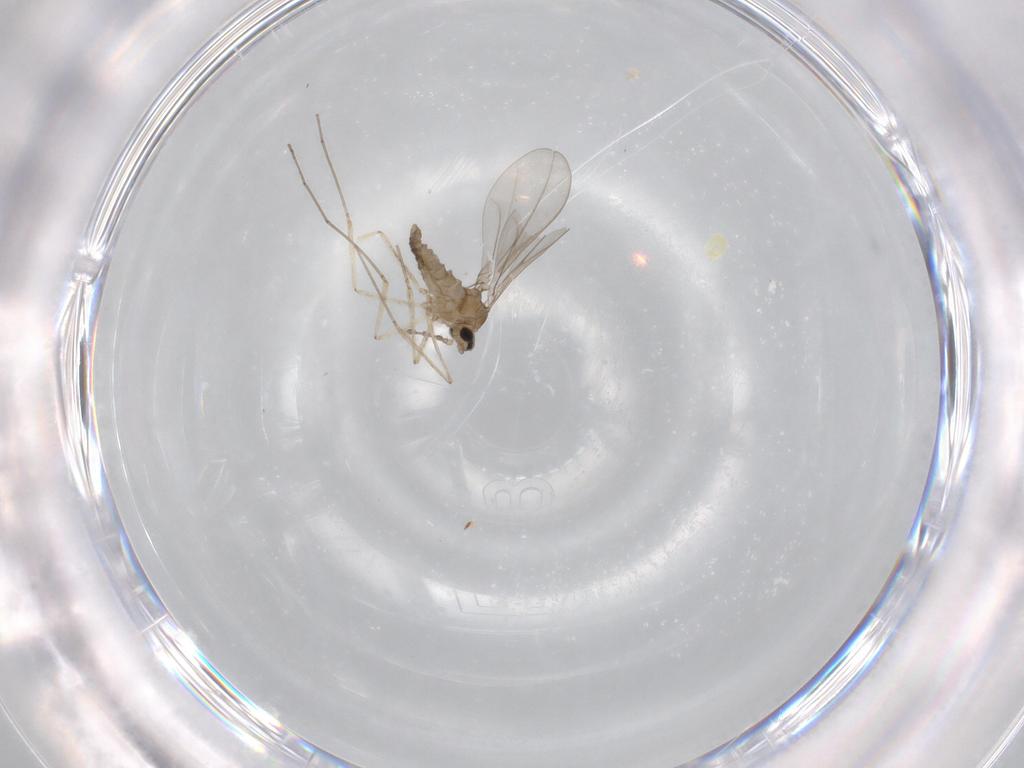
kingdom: Animalia
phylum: Arthropoda
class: Insecta
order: Diptera
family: Cecidomyiidae
